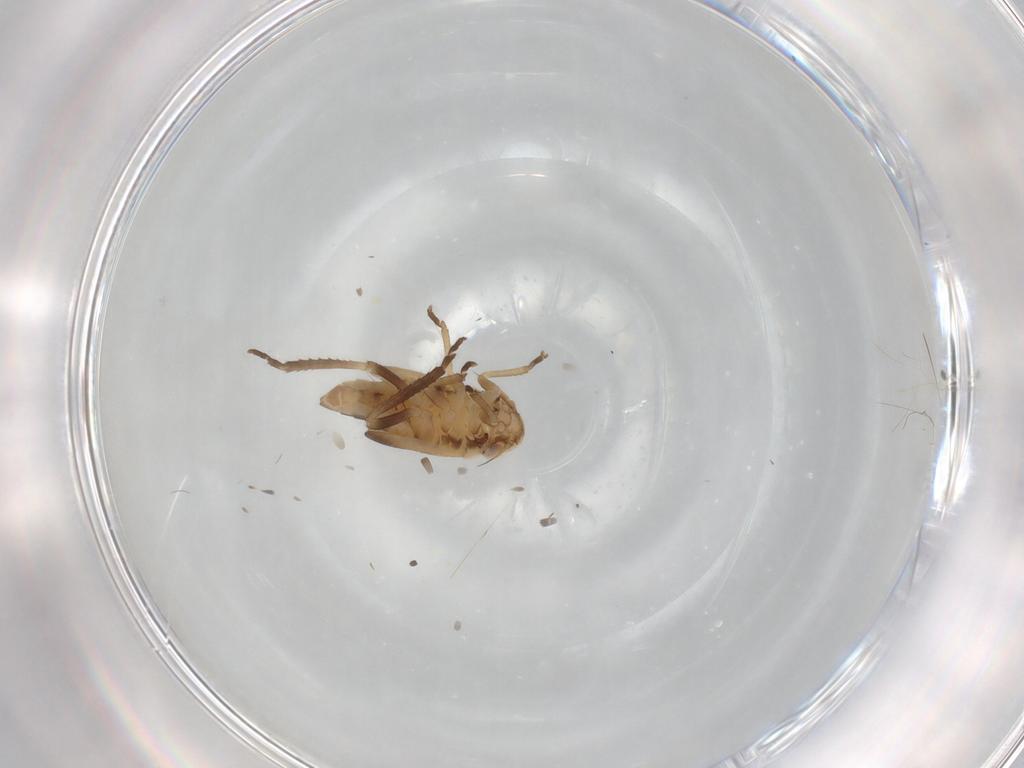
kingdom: Animalia
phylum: Arthropoda
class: Insecta
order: Hemiptera
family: Cicadellidae
